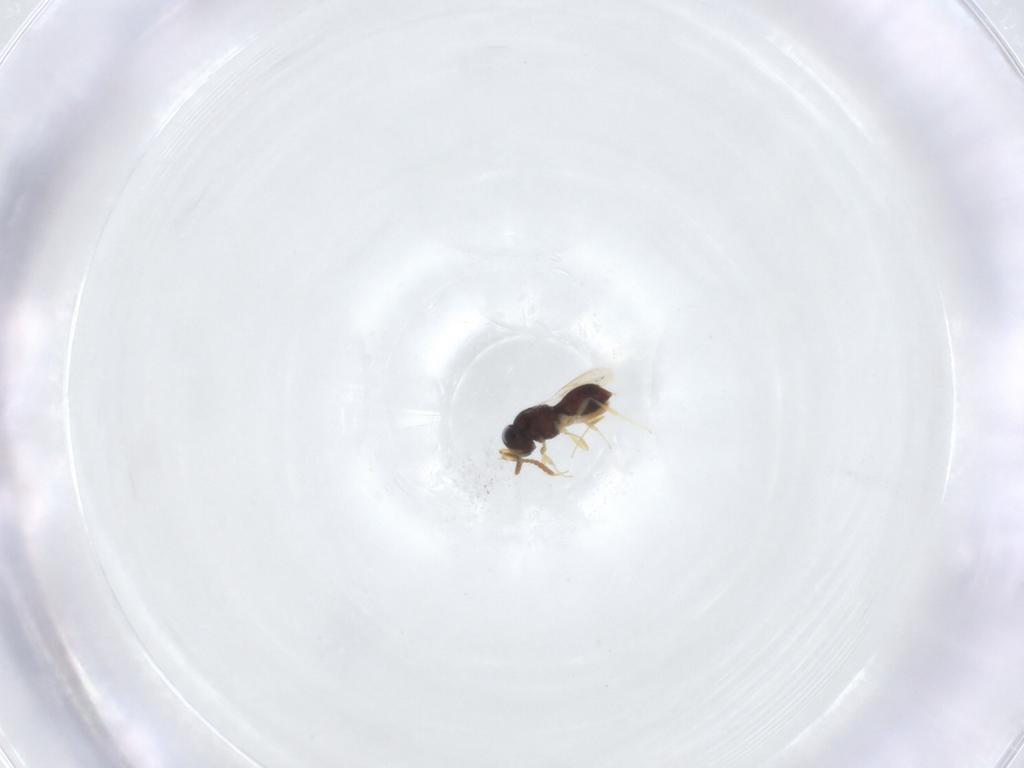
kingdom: Animalia
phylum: Arthropoda
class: Insecta
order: Hymenoptera
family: Scelionidae
